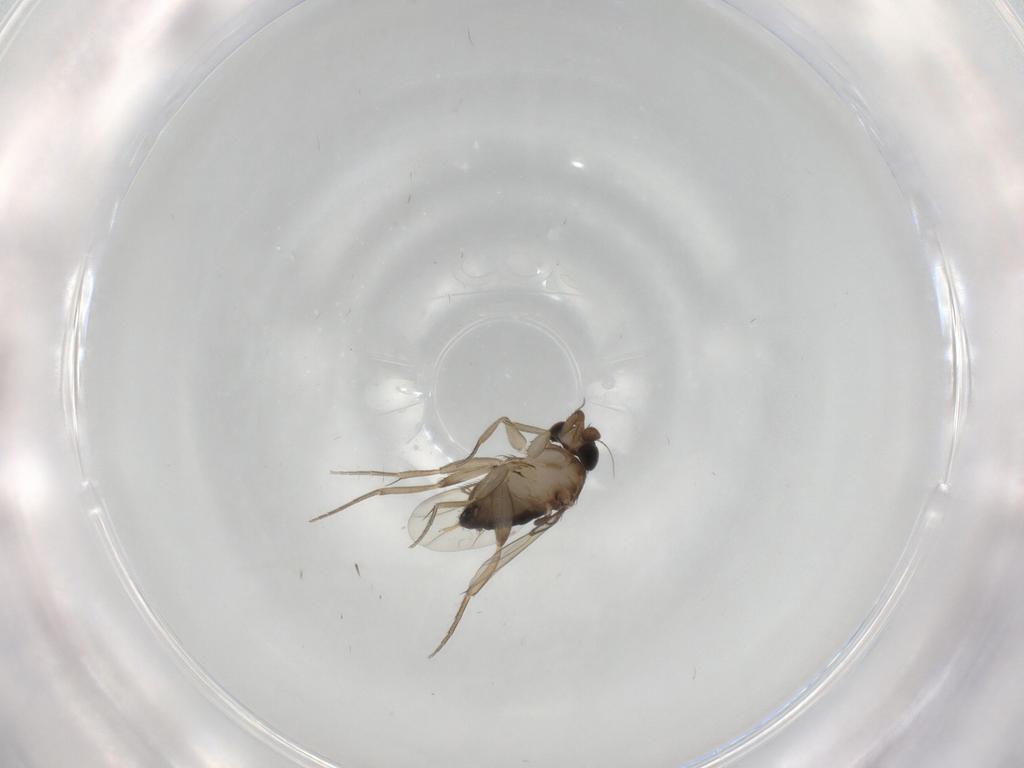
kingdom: Animalia
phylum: Arthropoda
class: Insecta
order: Diptera
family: Phoridae
